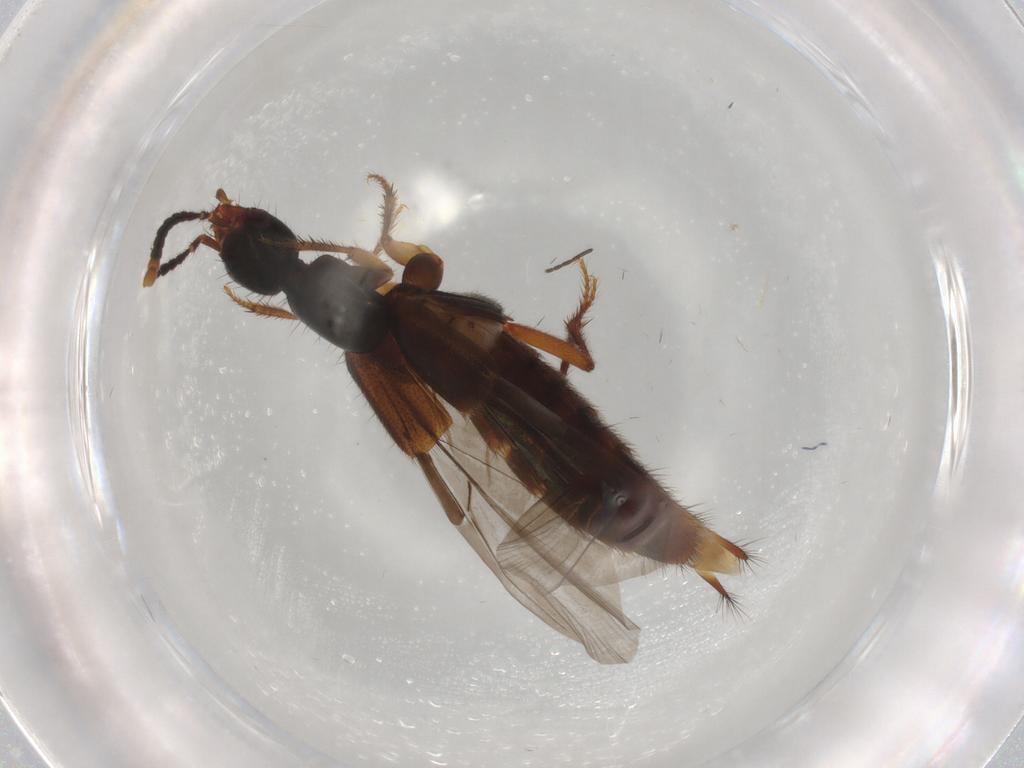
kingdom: Animalia
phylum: Arthropoda
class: Insecta
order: Coleoptera
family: Staphylinidae
